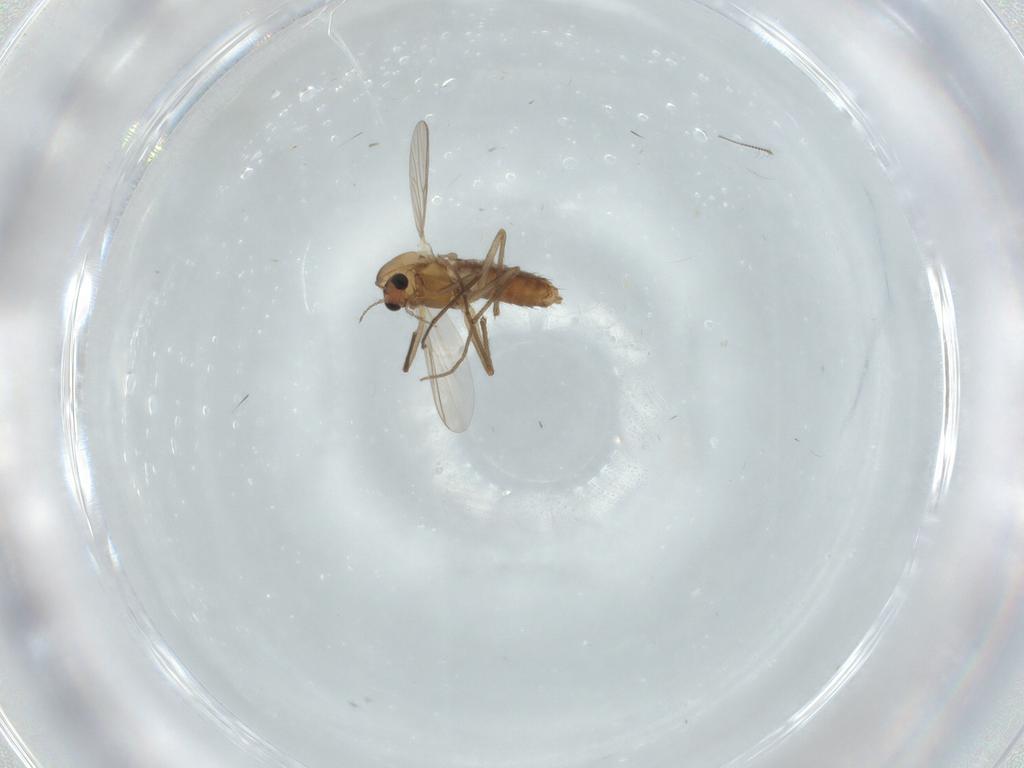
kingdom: Animalia
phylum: Arthropoda
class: Insecta
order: Diptera
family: Chironomidae
